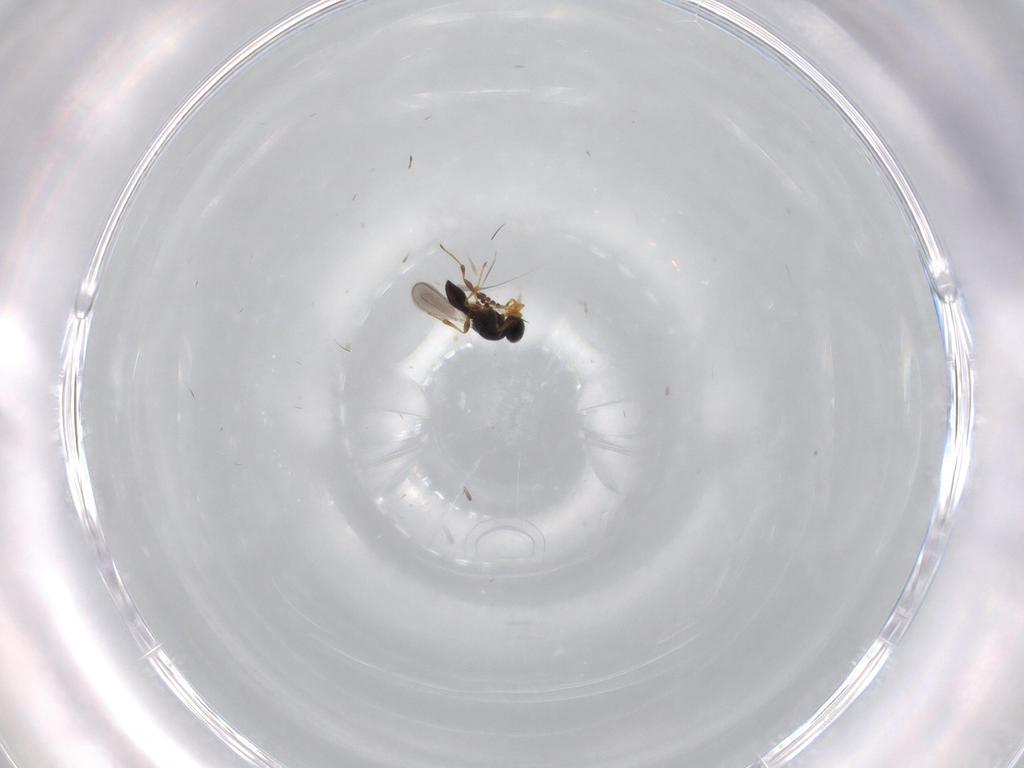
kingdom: Animalia
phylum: Arthropoda
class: Insecta
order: Hymenoptera
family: Platygastridae
